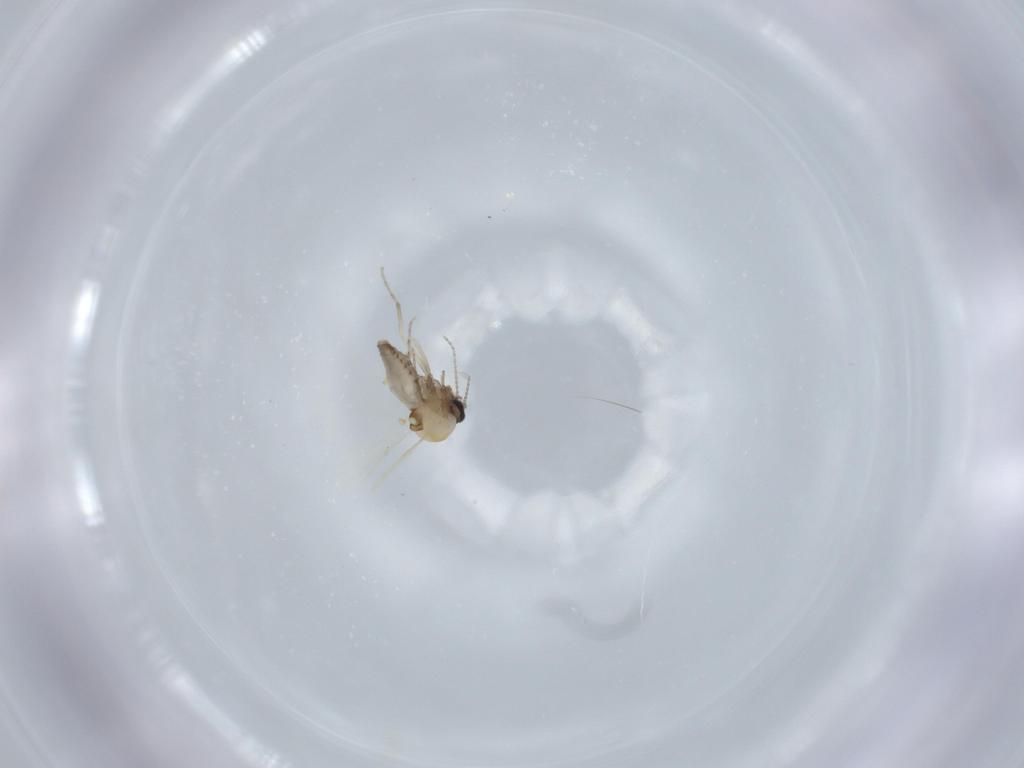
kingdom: Animalia
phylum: Arthropoda
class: Insecta
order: Diptera
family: Ceratopogonidae
